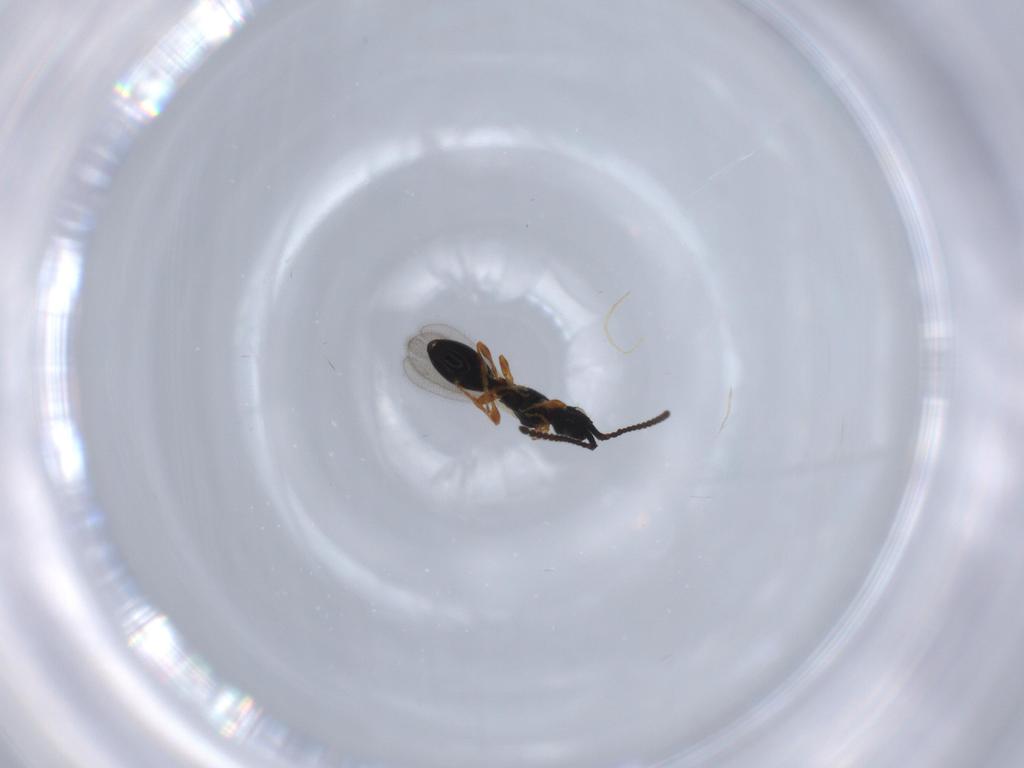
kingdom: Animalia
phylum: Arthropoda
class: Insecta
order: Hymenoptera
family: Diapriidae
